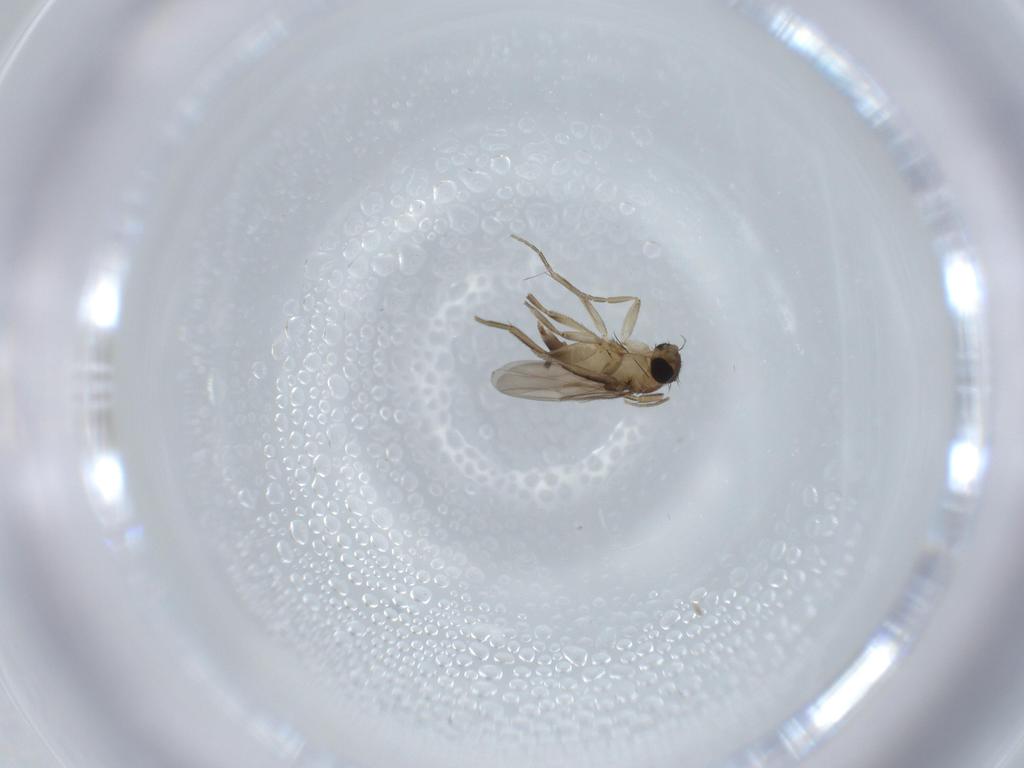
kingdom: Animalia
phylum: Arthropoda
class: Insecta
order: Diptera
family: Phoridae
